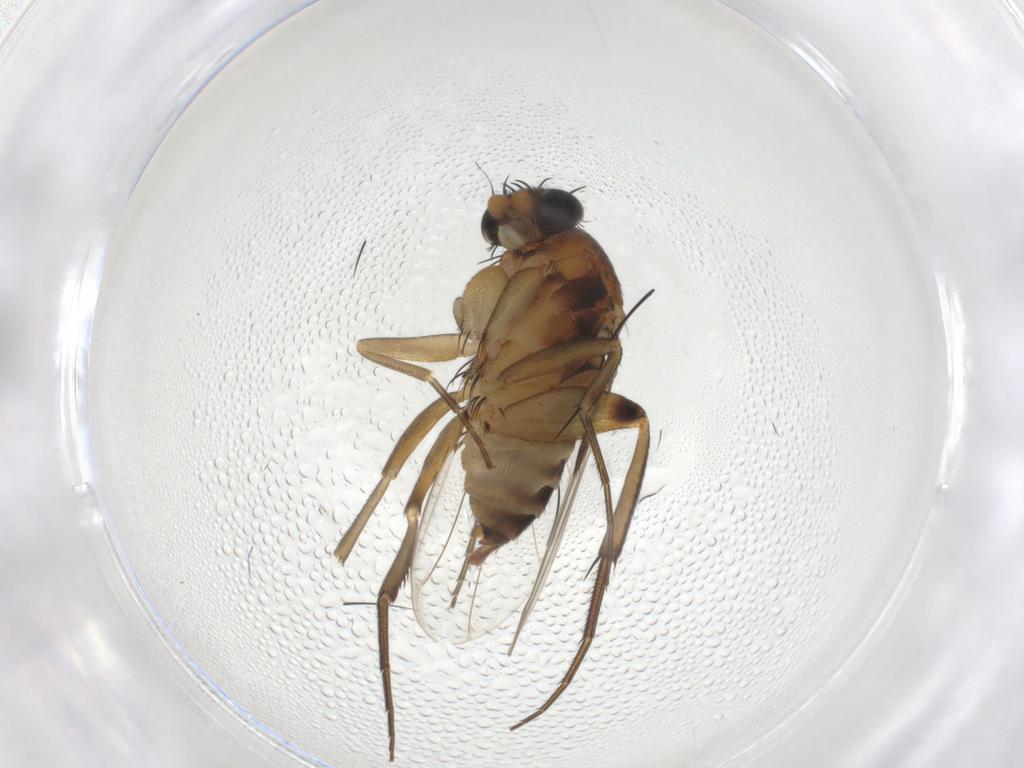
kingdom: Animalia
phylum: Arthropoda
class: Insecta
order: Diptera
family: Phoridae
